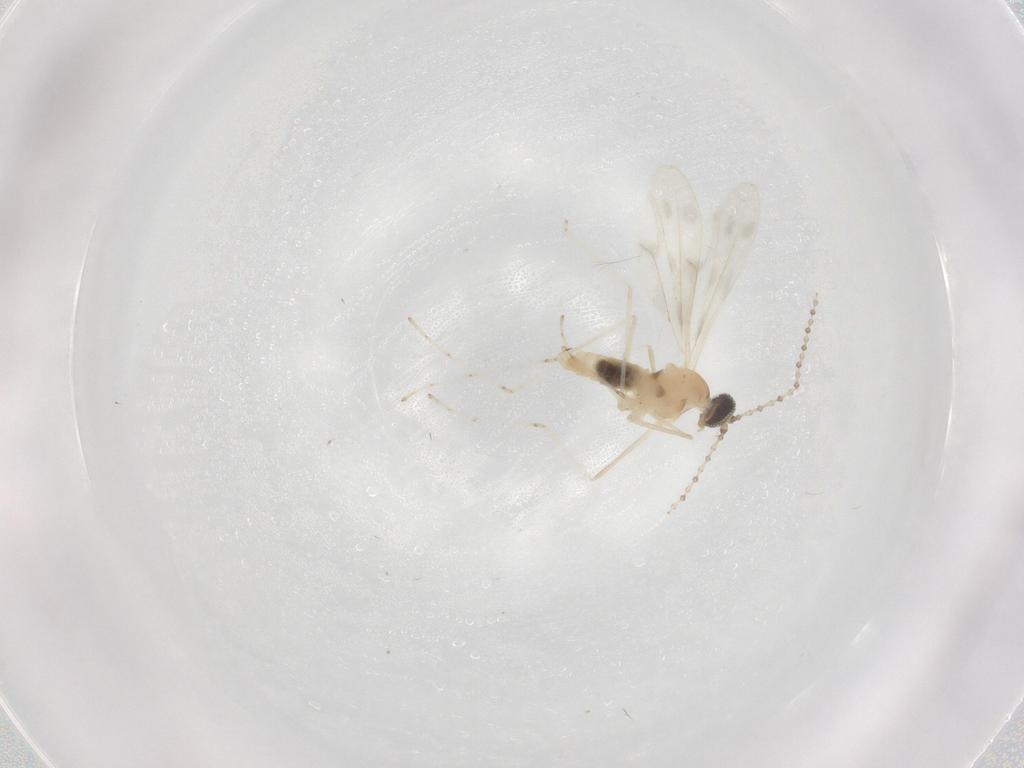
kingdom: Animalia
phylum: Arthropoda
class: Insecta
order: Diptera
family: Cecidomyiidae
